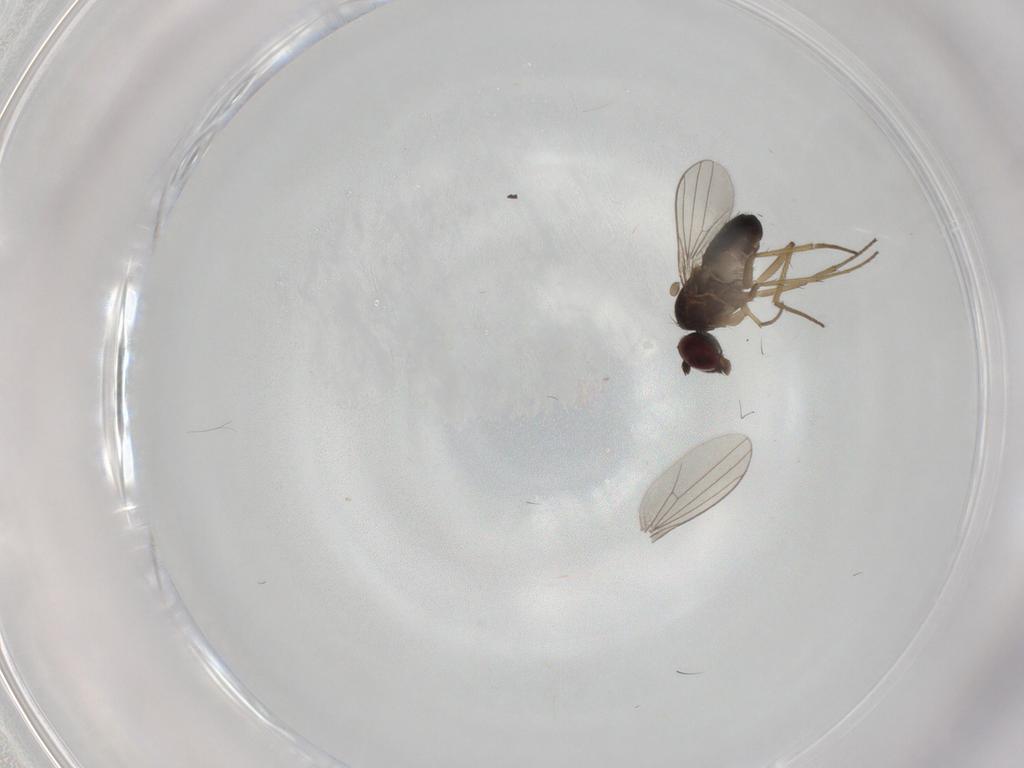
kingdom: Animalia
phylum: Arthropoda
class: Insecta
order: Diptera
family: Dolichopodidae
